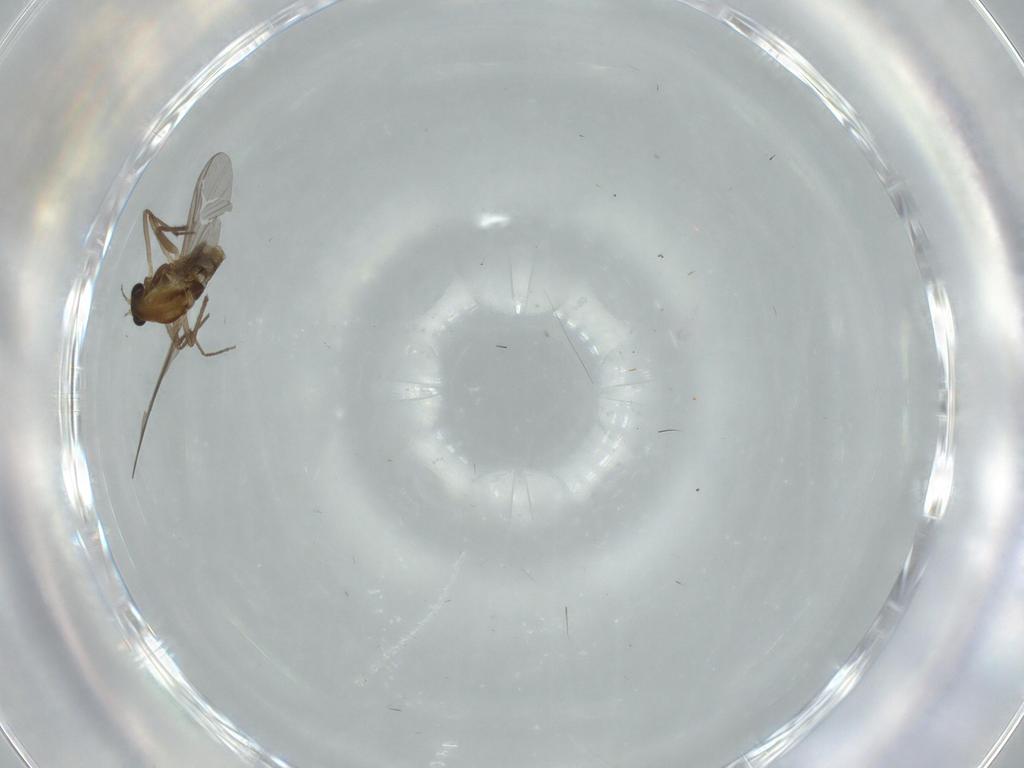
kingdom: Animalia
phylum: Arthropoda
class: Insecta
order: Diptera
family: Chironomidae
